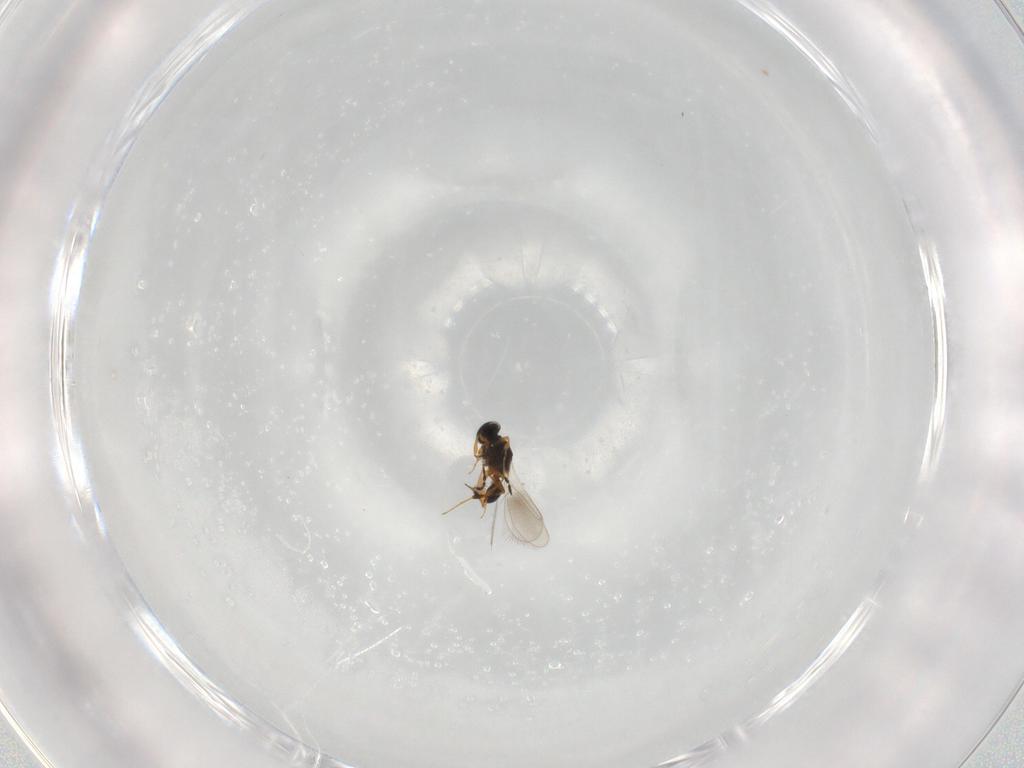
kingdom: Animalia
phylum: Arthropoda
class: Insecta
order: Hymenoptera
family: Platygastridae
